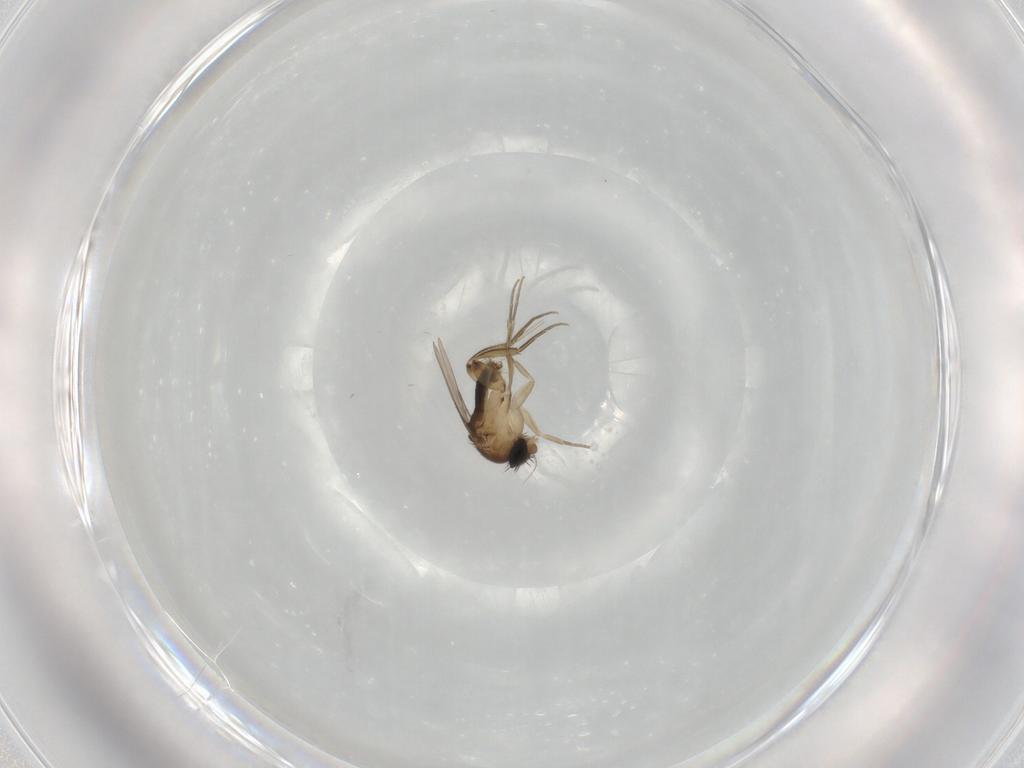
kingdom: Animalia
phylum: Arthropoda
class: Insecta
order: Diptera
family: Phoridae
